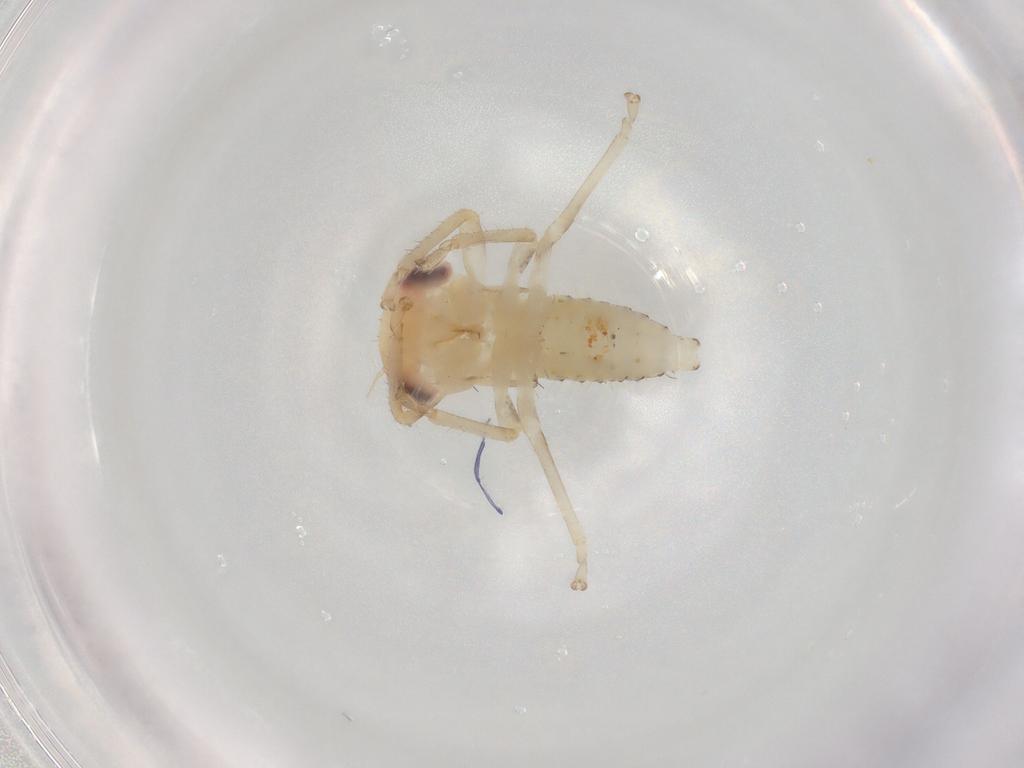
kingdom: Animalia
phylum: Arthropoda
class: Insecta
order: Hemiptera
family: Cicadellidae
